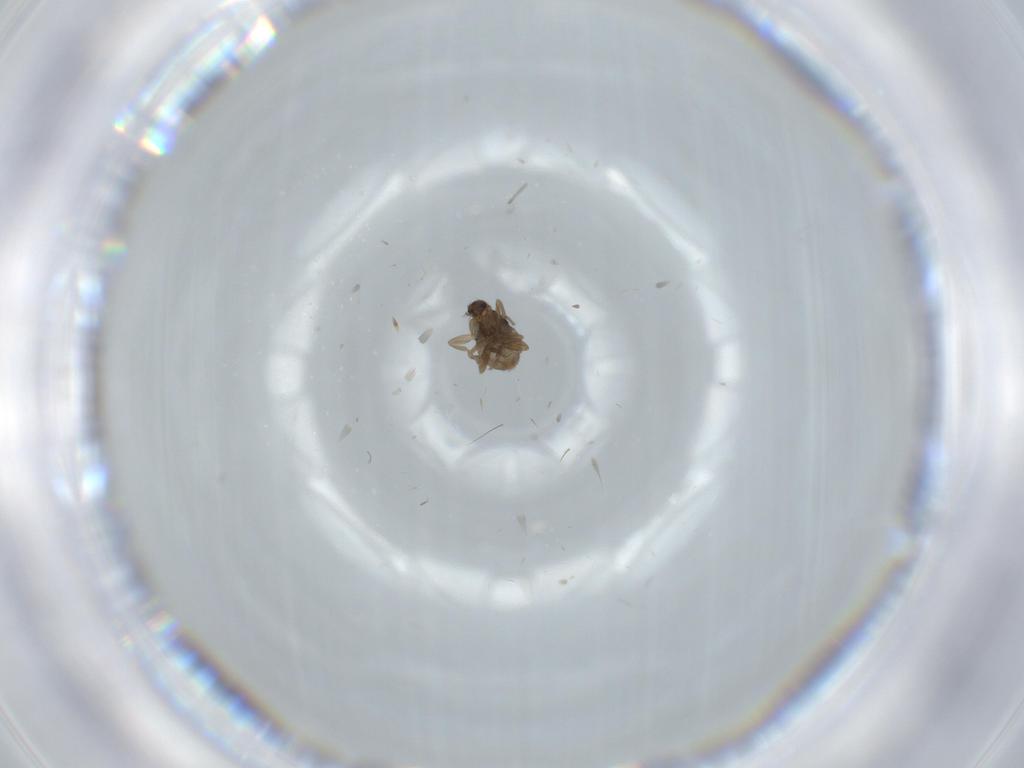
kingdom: Animalia
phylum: Arthropoda
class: Insecta
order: Diptera
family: Phoridae
